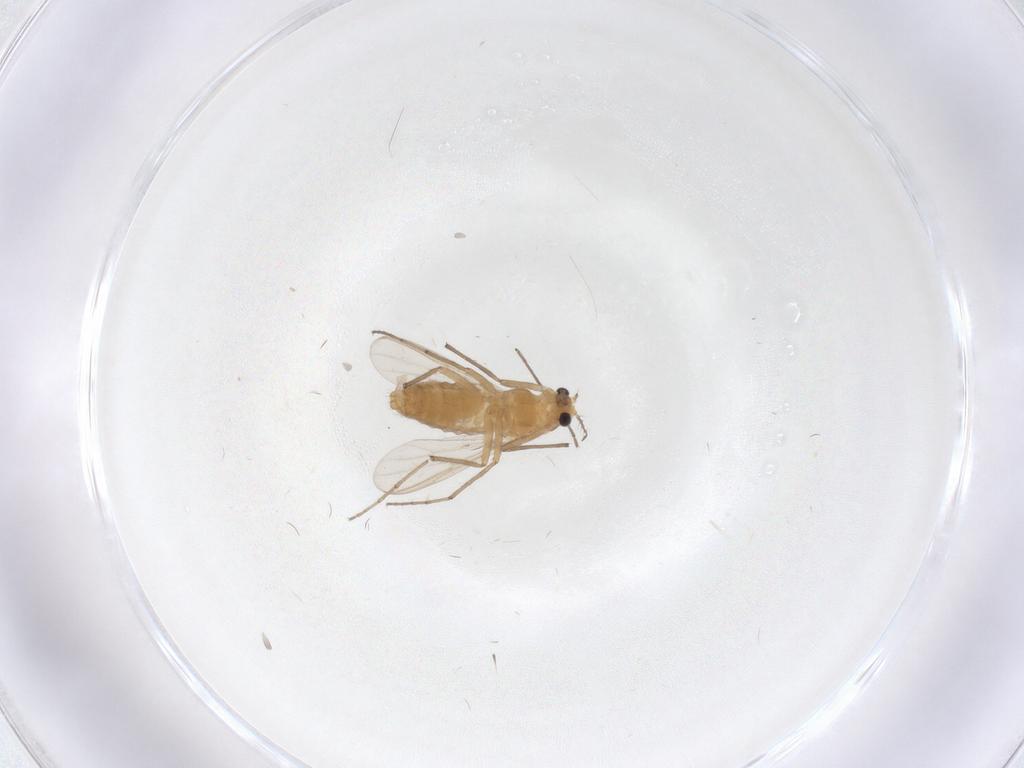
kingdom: Animalia
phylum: Arthropoda
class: Insecta
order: Diptera
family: Chironomidae
